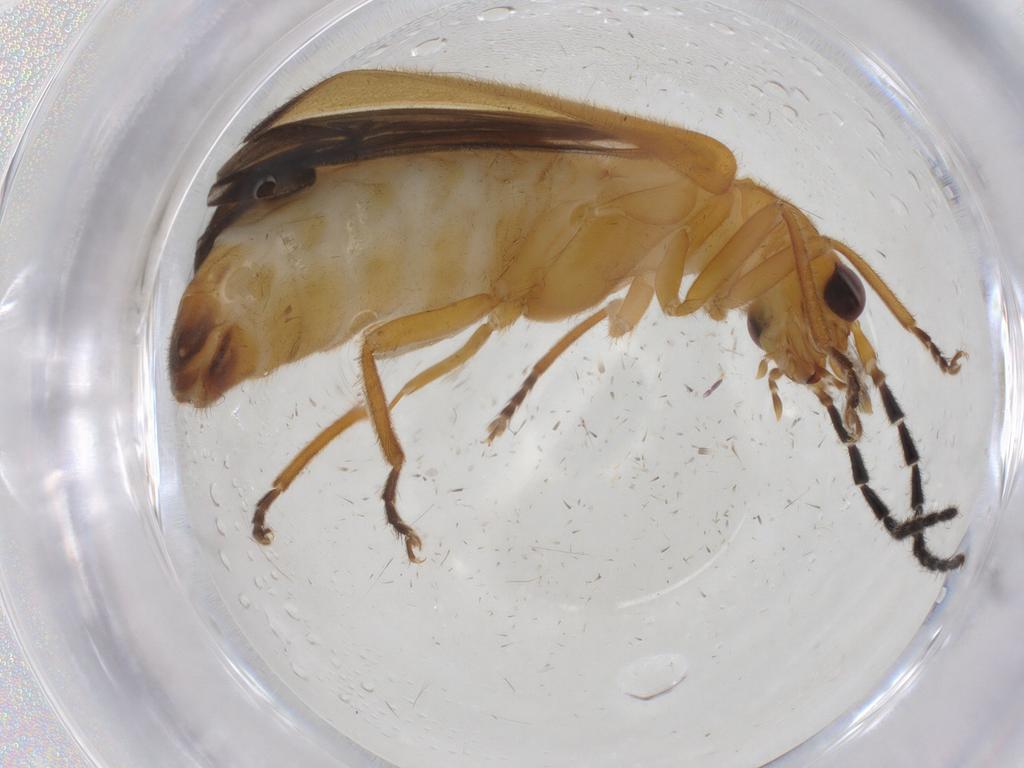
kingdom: Animalia
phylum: Arthropoda
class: Insecta
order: Coleoptera
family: Cantharidae
